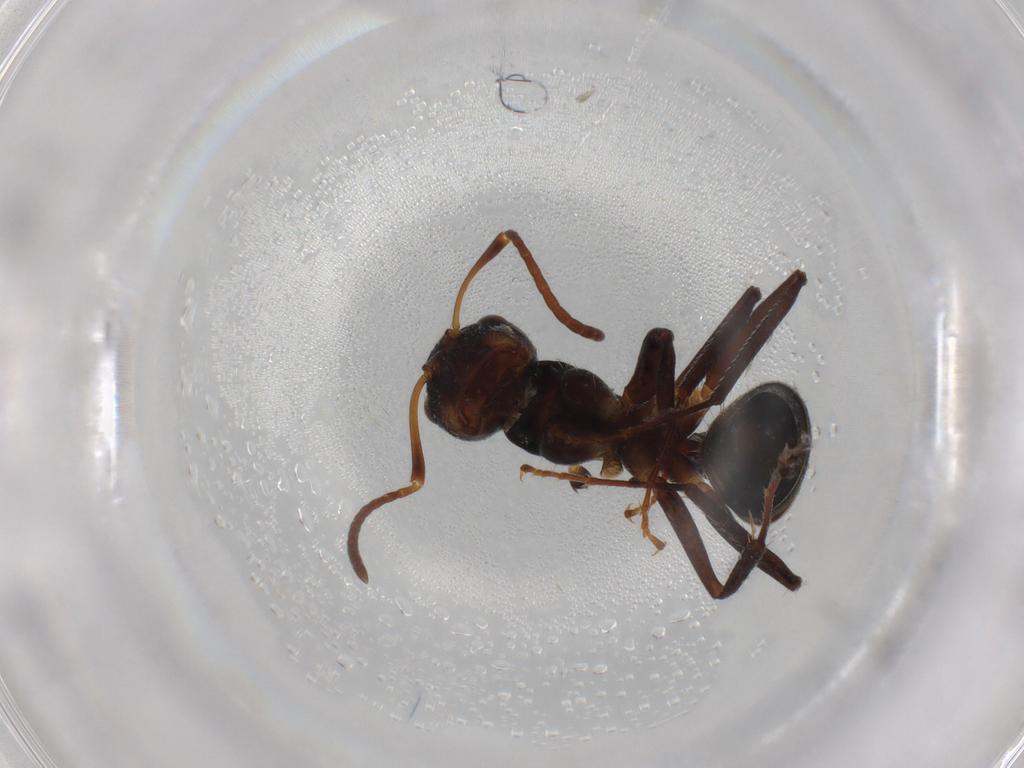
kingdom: Animalia
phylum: Arthropoda
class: Insecta
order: Hymenoptera
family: Formicidae
